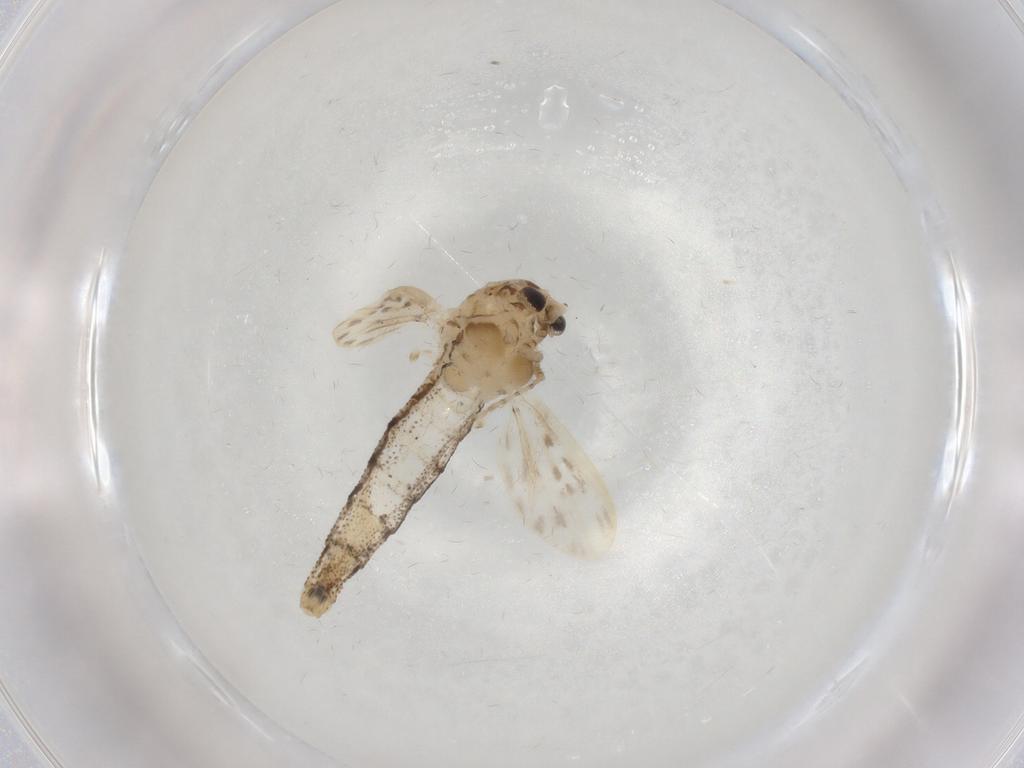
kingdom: Animalia
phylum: Arthropoda
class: Insecta
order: Diptera
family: Chaoboridae
